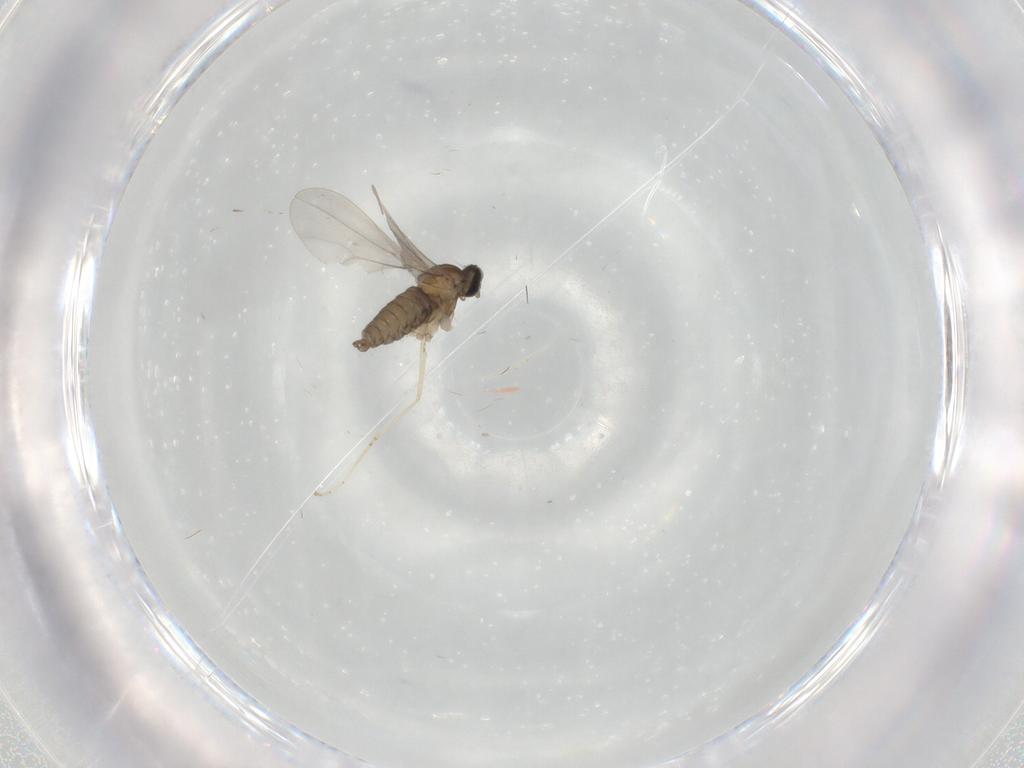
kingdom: Animalia
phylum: Arthropoda
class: Insecta
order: Diptera
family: Cecidomyiidae
